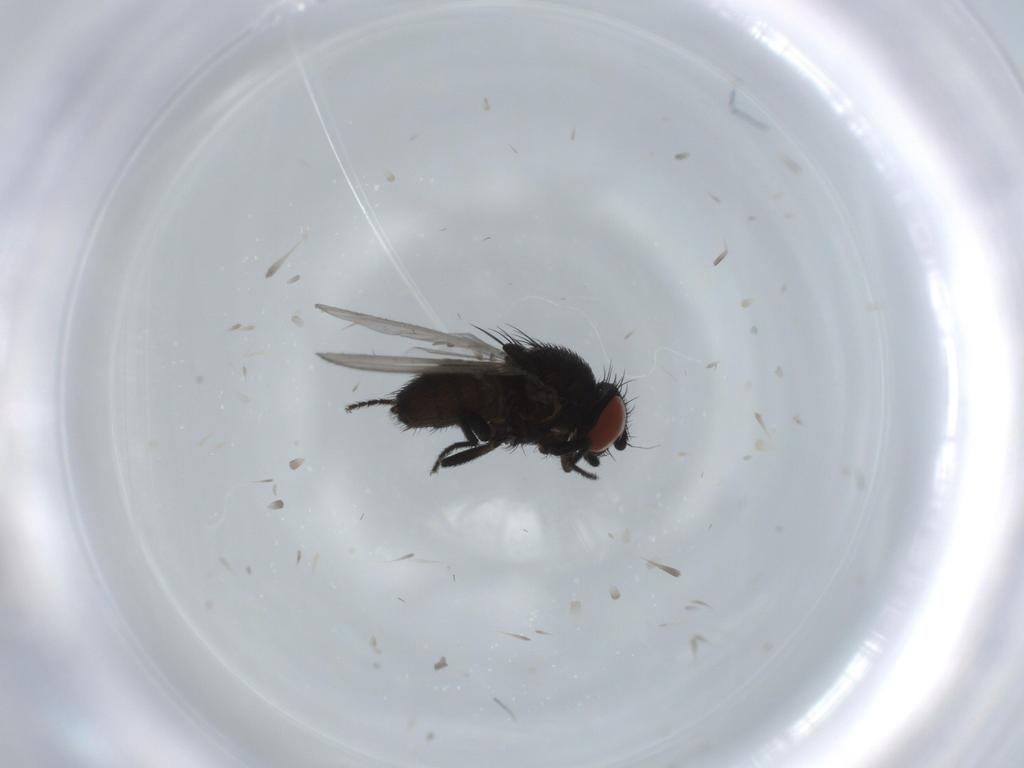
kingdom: Animalia
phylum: Arthropoda
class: Insecta
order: Diptera
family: Milichiidae
